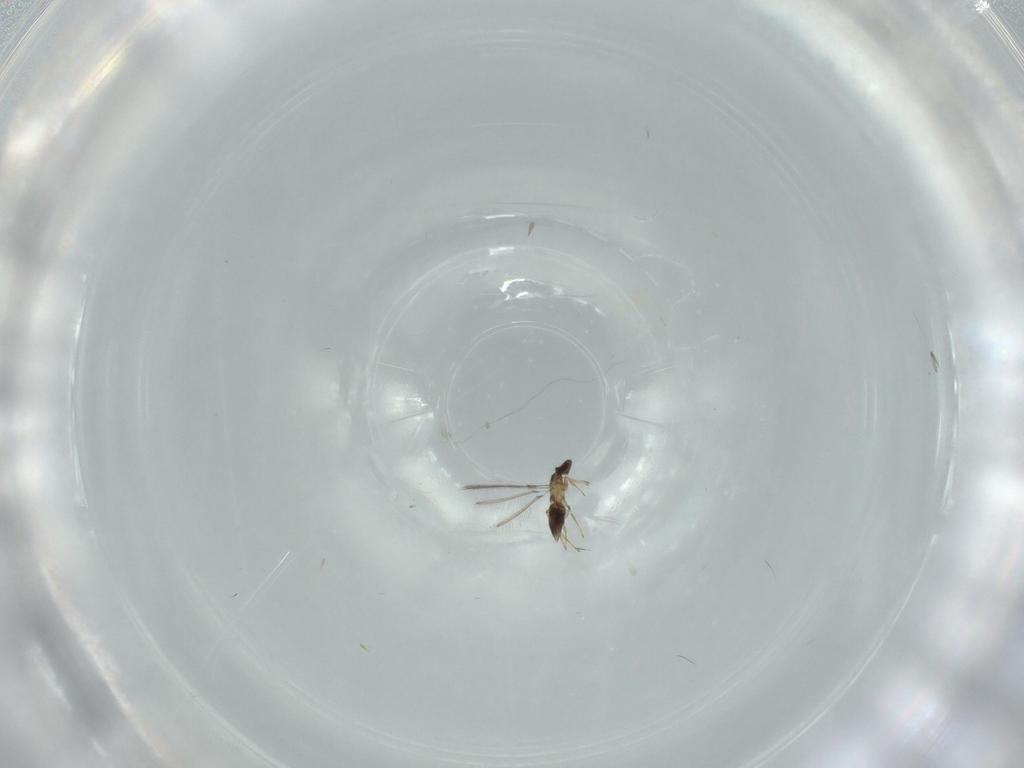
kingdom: Animalia
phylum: Arthropoda
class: Insecta
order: Hymenoptera
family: Mymaridae
